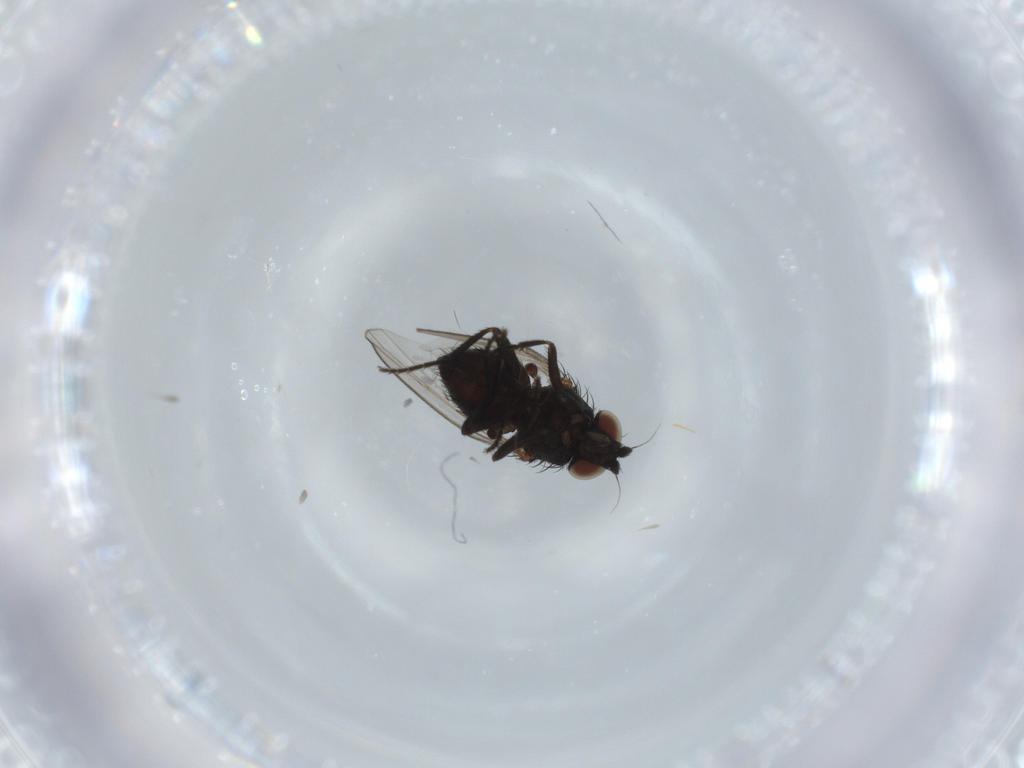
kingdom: Animalia
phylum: Arthropoda
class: Insecta
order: Diptera
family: Milichiidae
